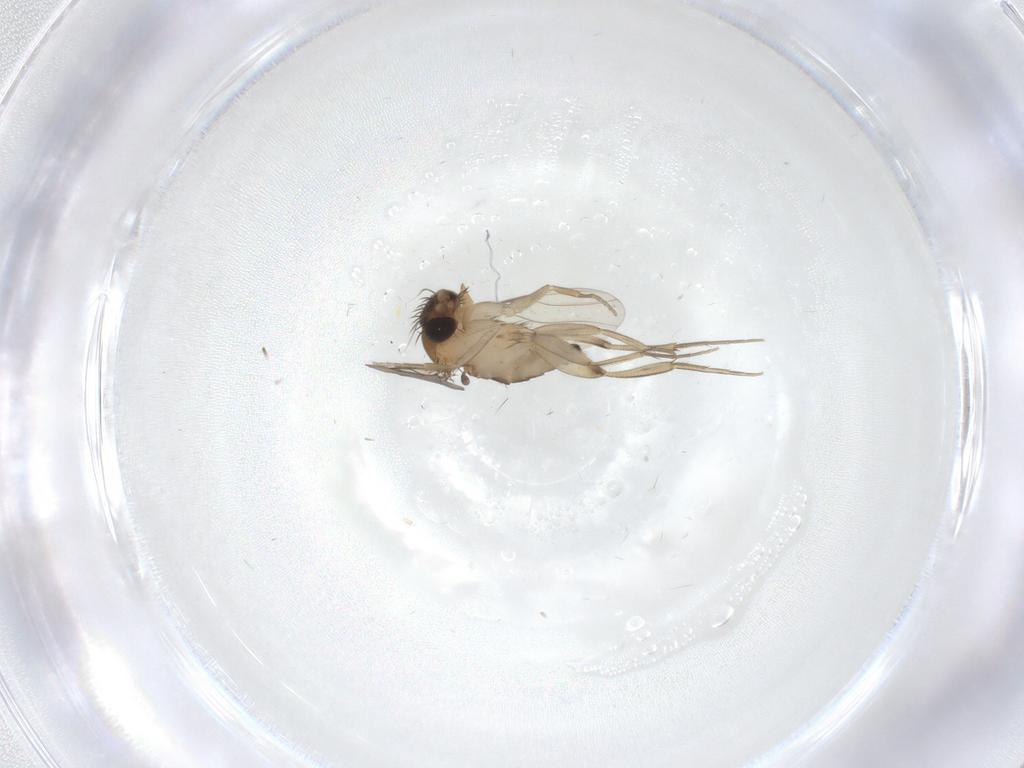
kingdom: Animalia
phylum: Arthropoda
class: Insecta
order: Diptera
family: Phoridae
